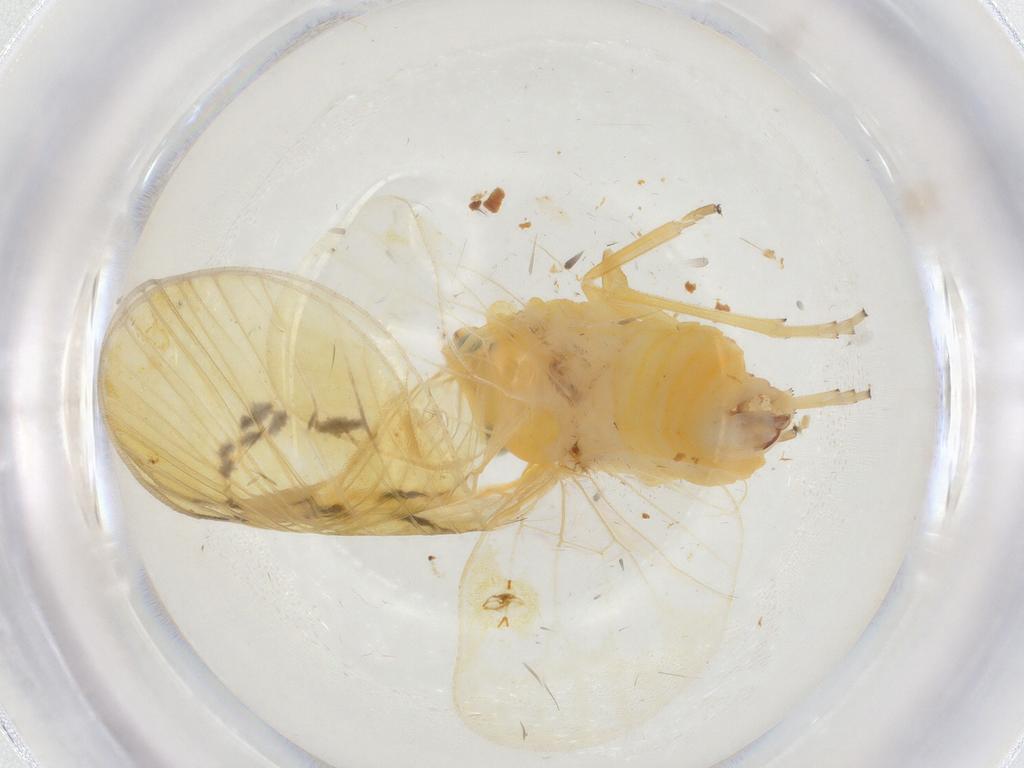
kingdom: Animalia
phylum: Arthropoda
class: Insecta
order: Hemiptera
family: Cixiidae
